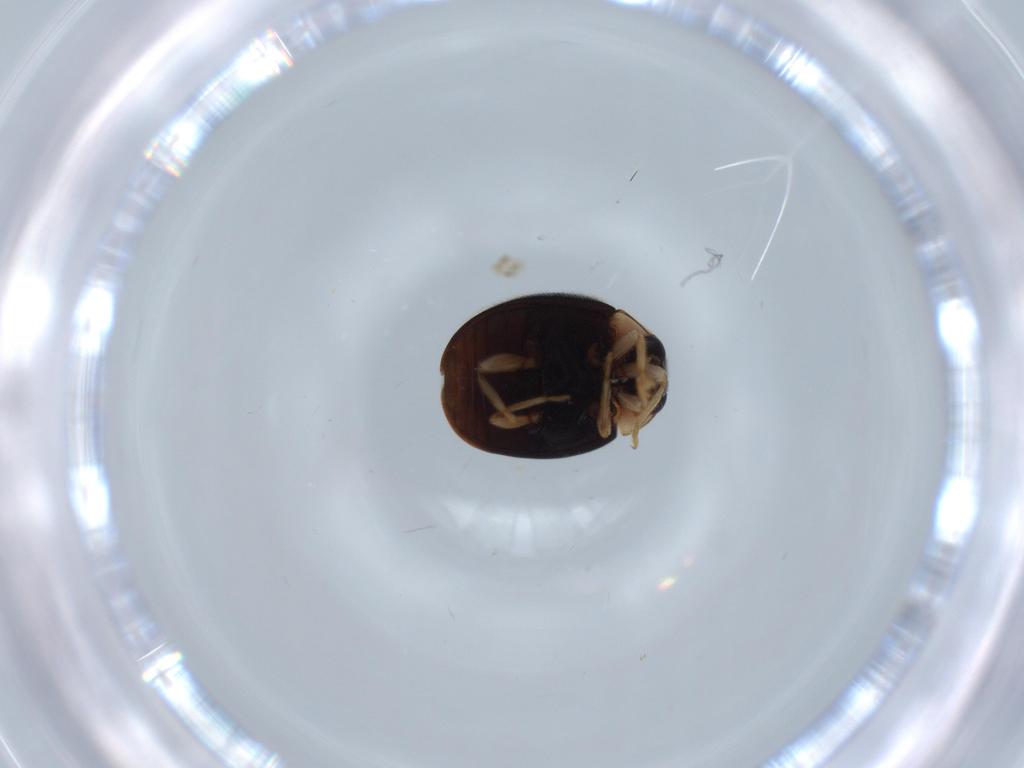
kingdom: Animalia
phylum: Arthropoda
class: Insecta
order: Coleoptera
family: Coccinellidae
